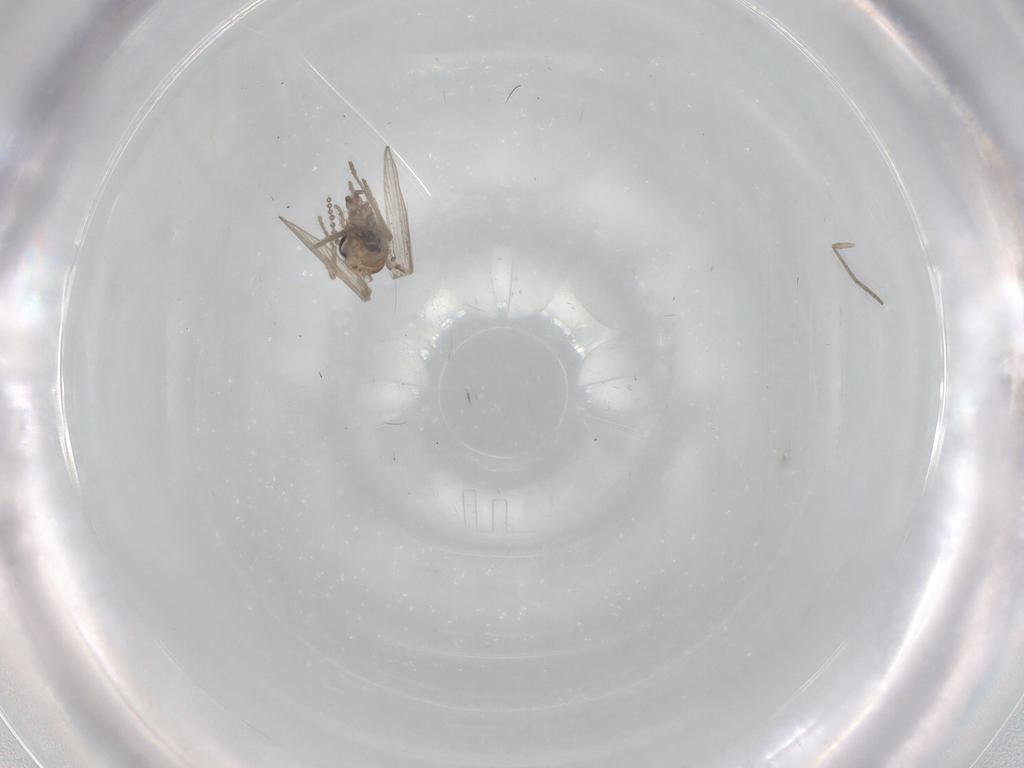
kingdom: Animalia
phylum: Arthropoda
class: Insecta
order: Diptera
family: Psychodidae
